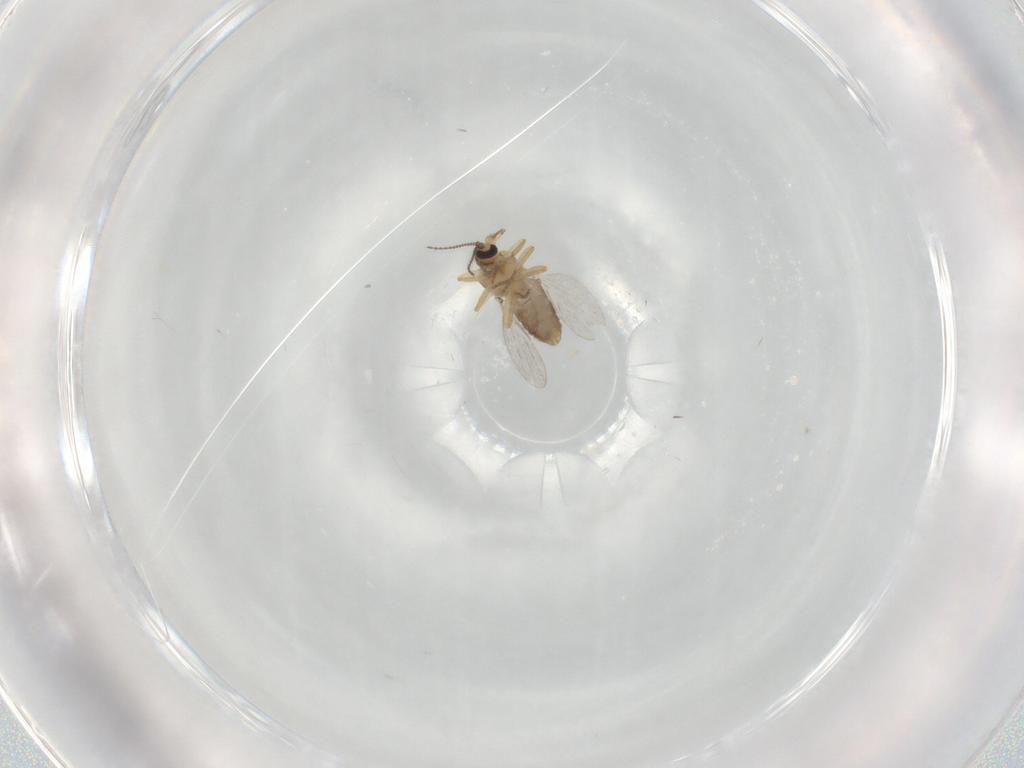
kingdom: Animalia
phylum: Arthropoda
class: Insecta
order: Diptera
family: Ceratopogonidae
